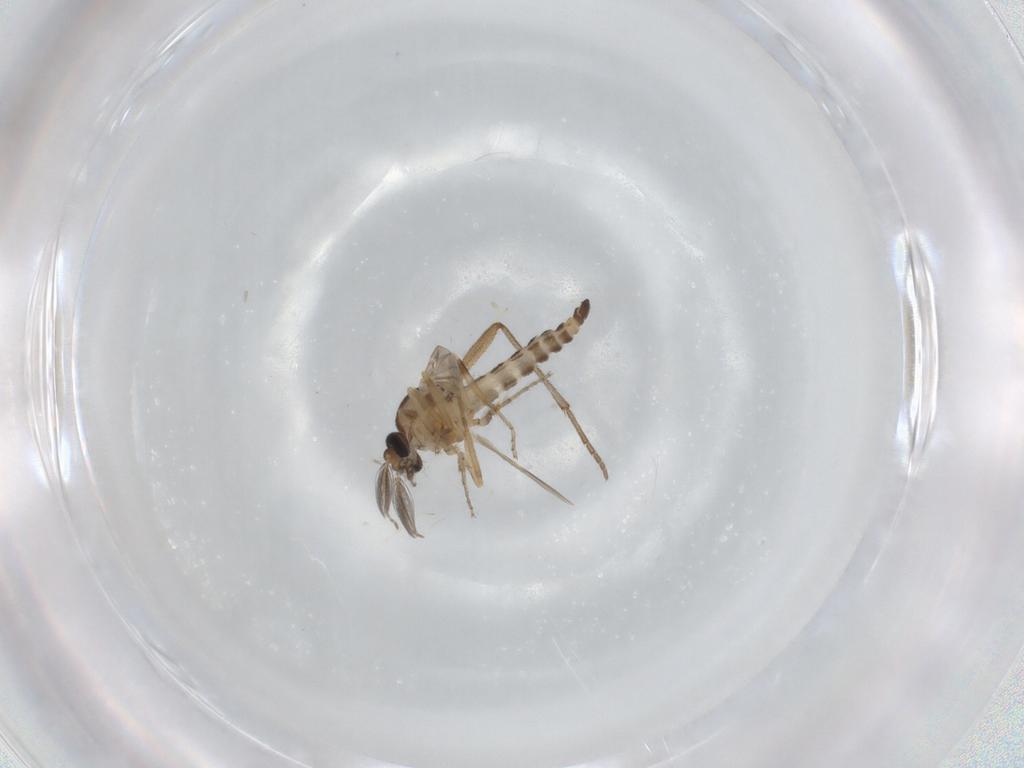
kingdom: Animalia
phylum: Arthropoda
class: Insecta
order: Diptera
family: Ceratopogonidae
